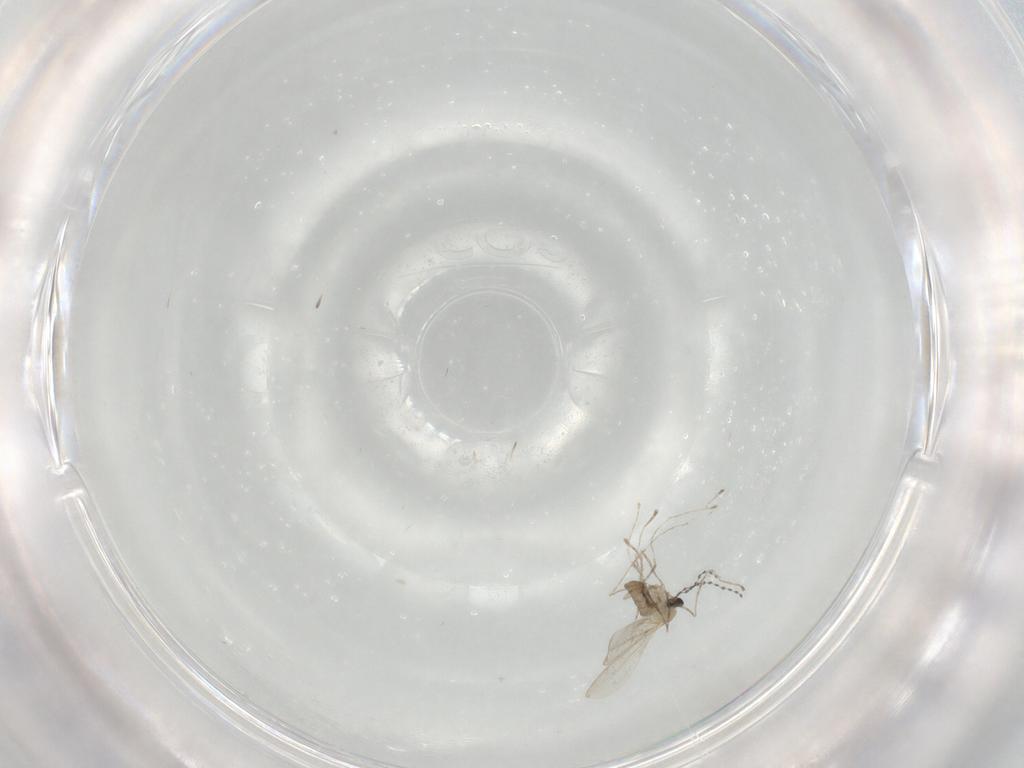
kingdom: Animalia
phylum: Arthropoda
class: Insecta
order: Diptera
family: Cecidomyiidae
